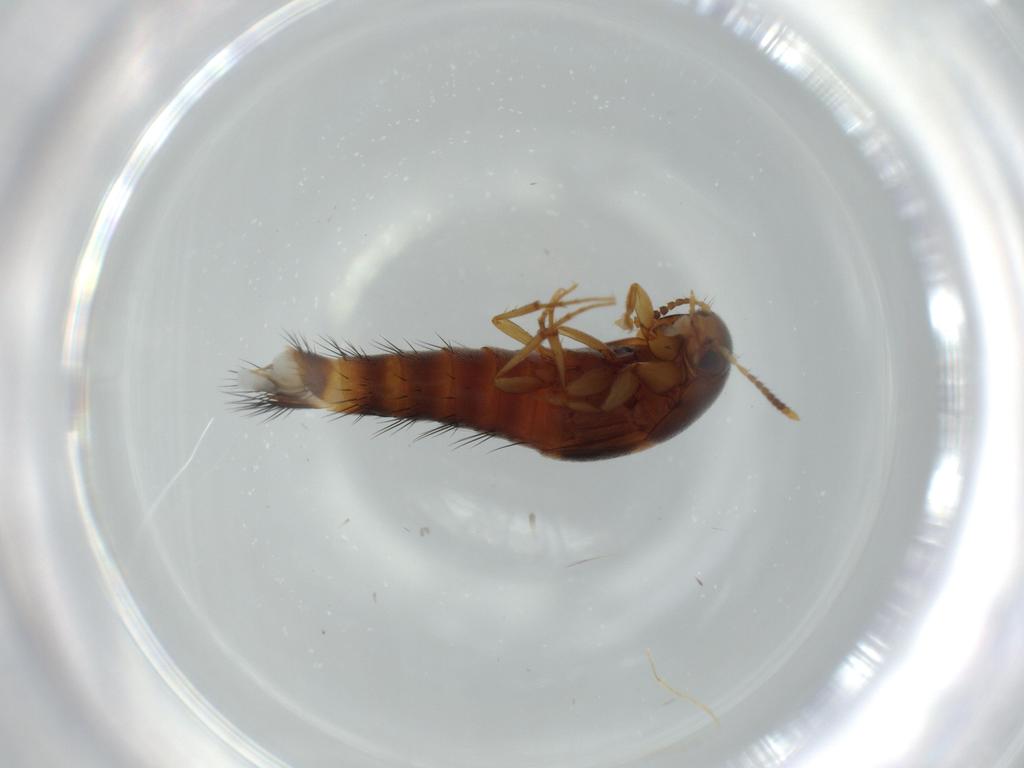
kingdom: Animalia
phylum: Arthropoda
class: Insecta
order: Coleoptera
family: Staphylinidae
